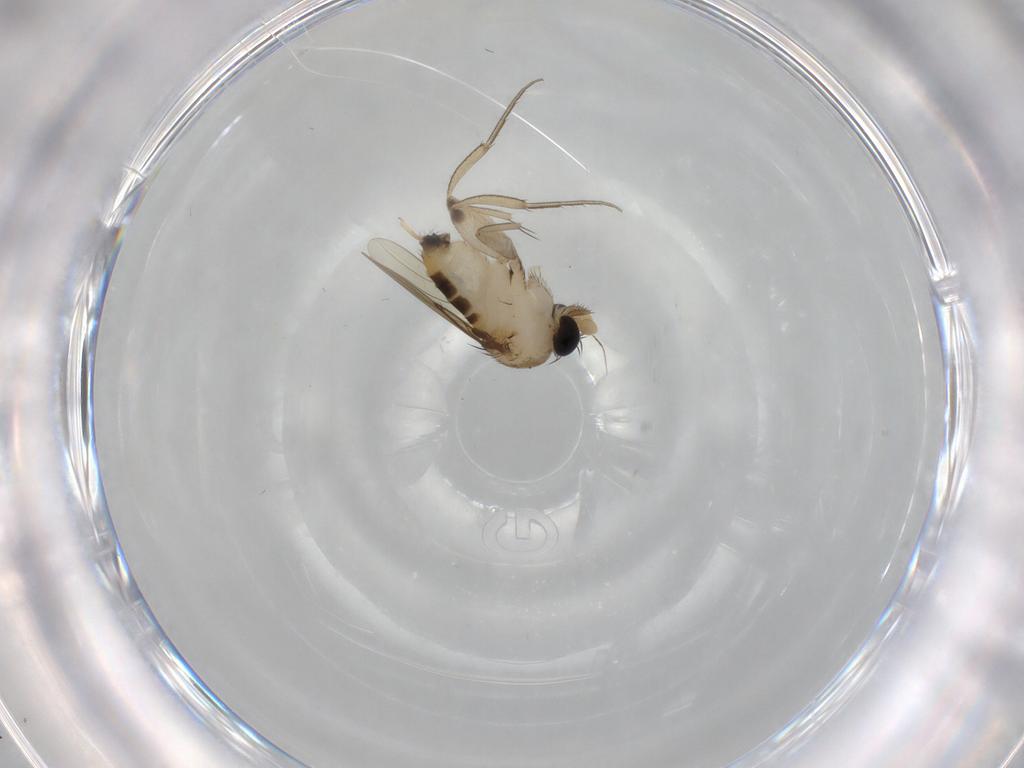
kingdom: Animalia
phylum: Arthropoda
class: Insecta
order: Diptera
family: Phoridae
